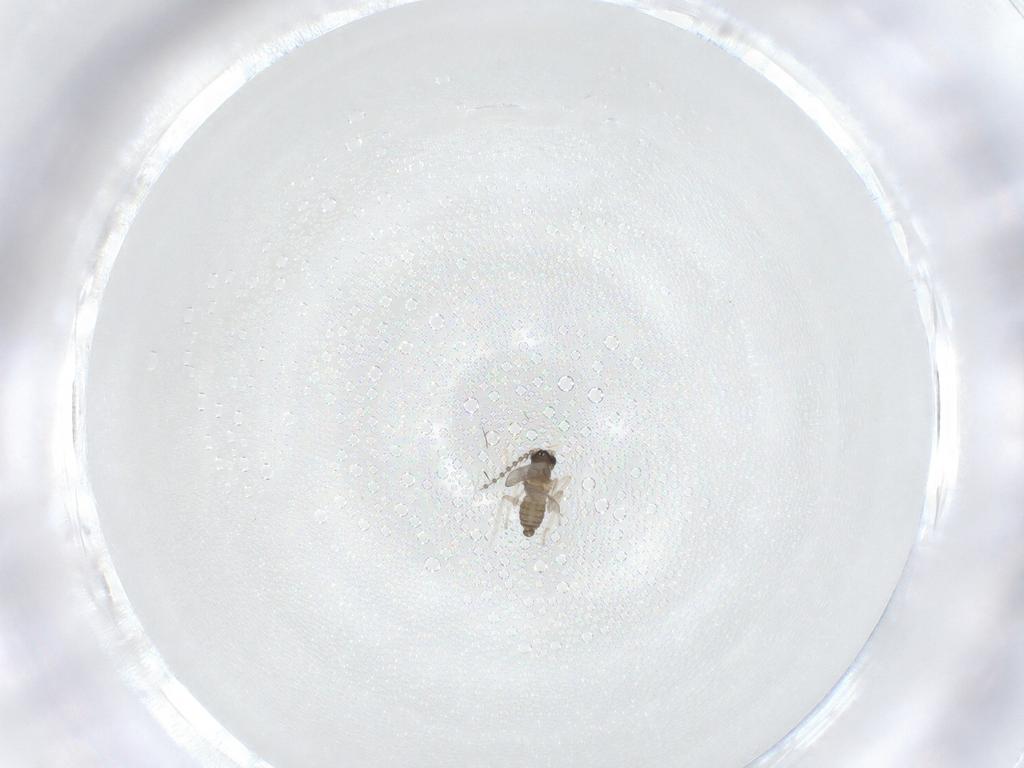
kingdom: Animalia
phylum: Arthropoda
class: Insecta
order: Diptera
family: Cecidomyiidae
